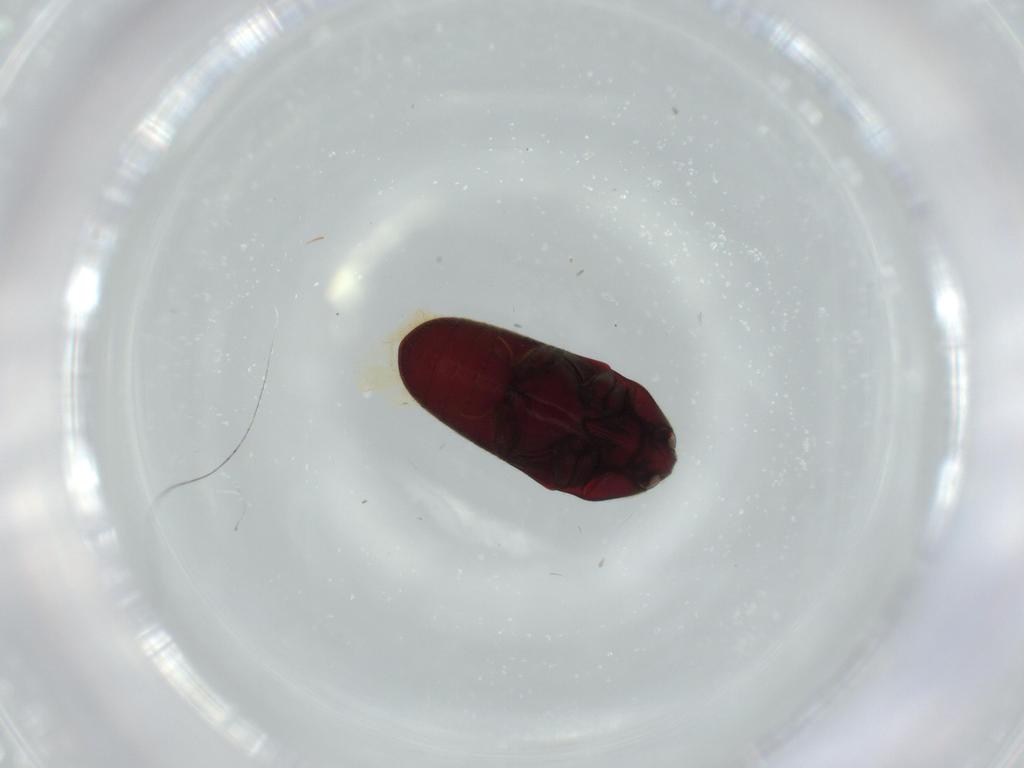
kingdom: Animalia
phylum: Arthropoda
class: Insecta
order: Coleoptera
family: Throscidae
